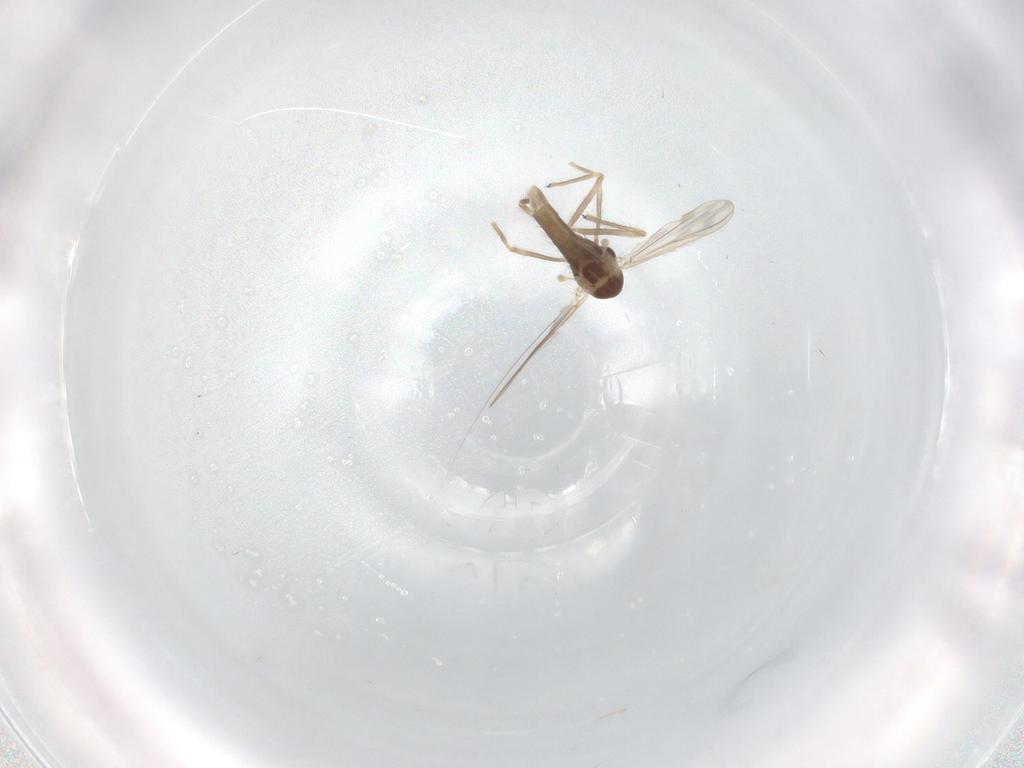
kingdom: Animalia
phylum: Arthropoda
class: Insecta
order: Diptera
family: Chironomidae
